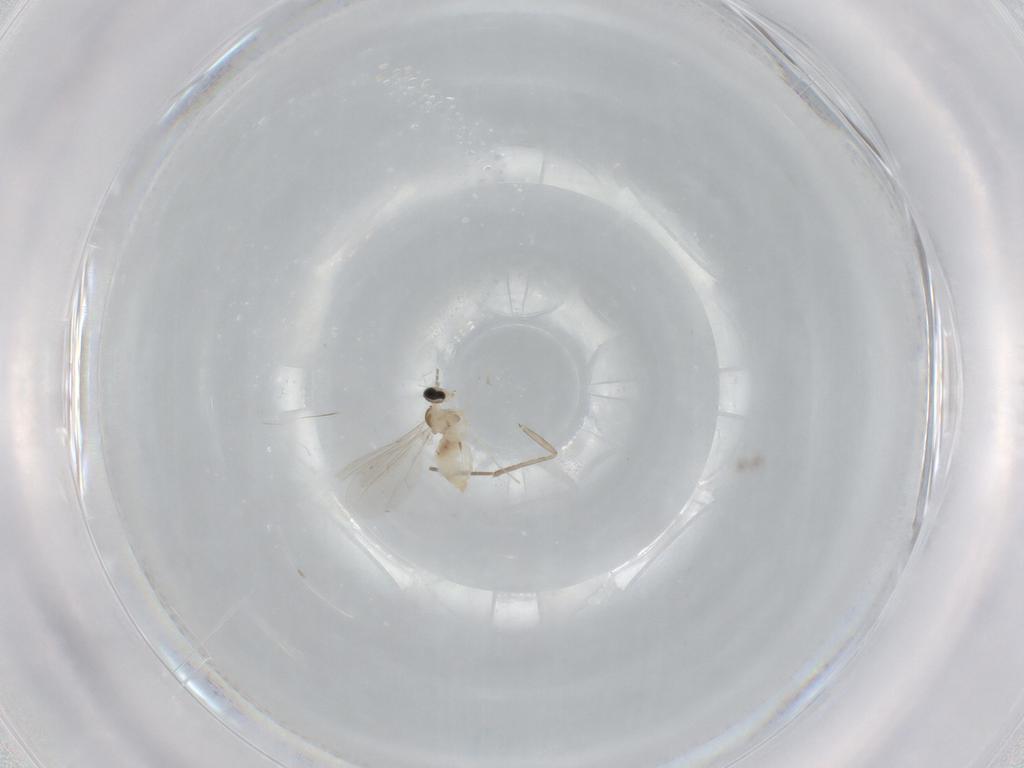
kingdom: Animalia
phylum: Arthropoda
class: Insecta
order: Diptera
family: Cecidomyiidae
